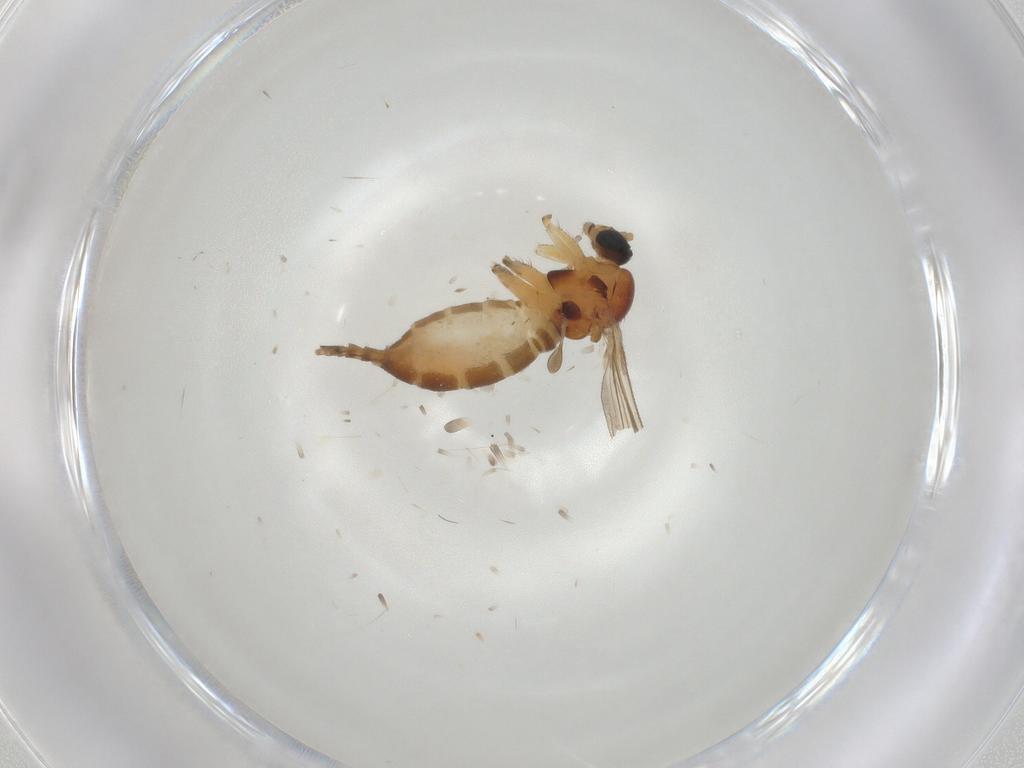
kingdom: Animalia
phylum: Arthropoda
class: Insecta
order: Diptera
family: Sciaridae
